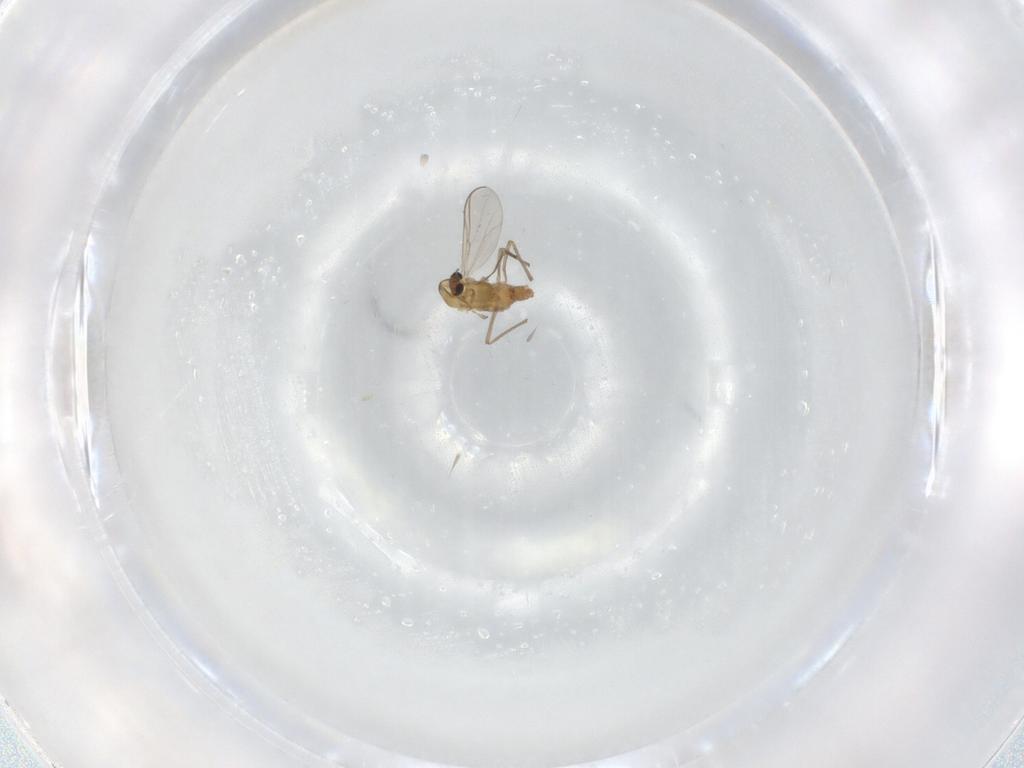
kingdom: Animalia
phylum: Arthropoda
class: Insecta
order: Diptera
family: Chironomidae
